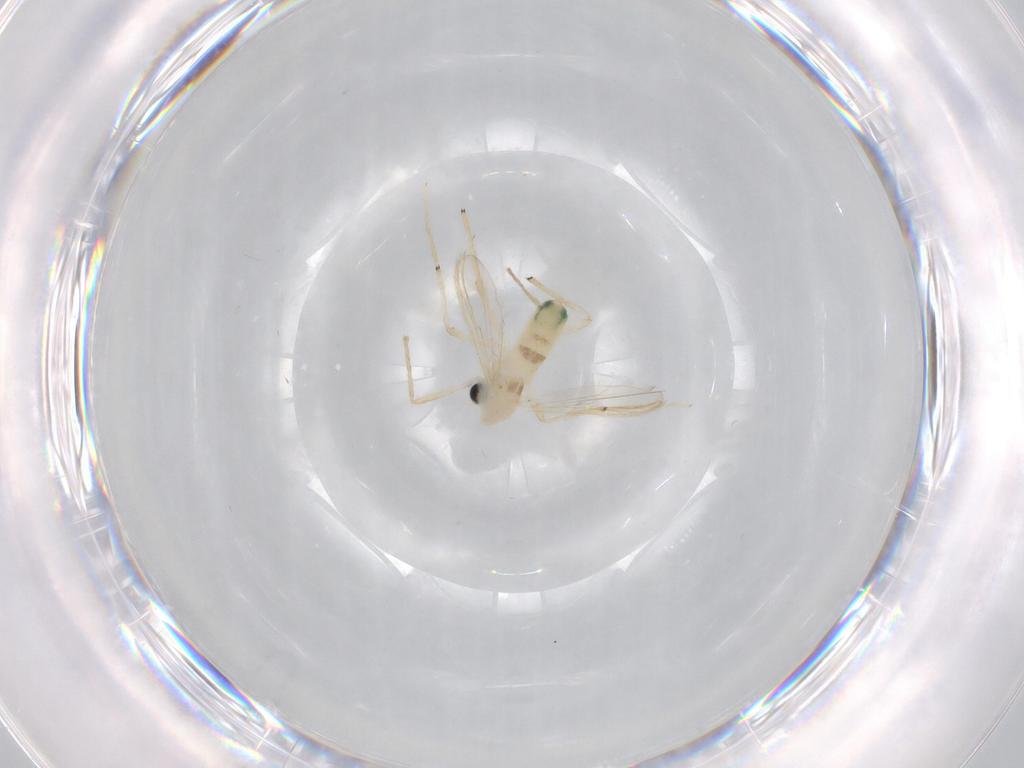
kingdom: Animalia
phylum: Arthropoda
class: Insecta
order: Diptera
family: Chironomidae
